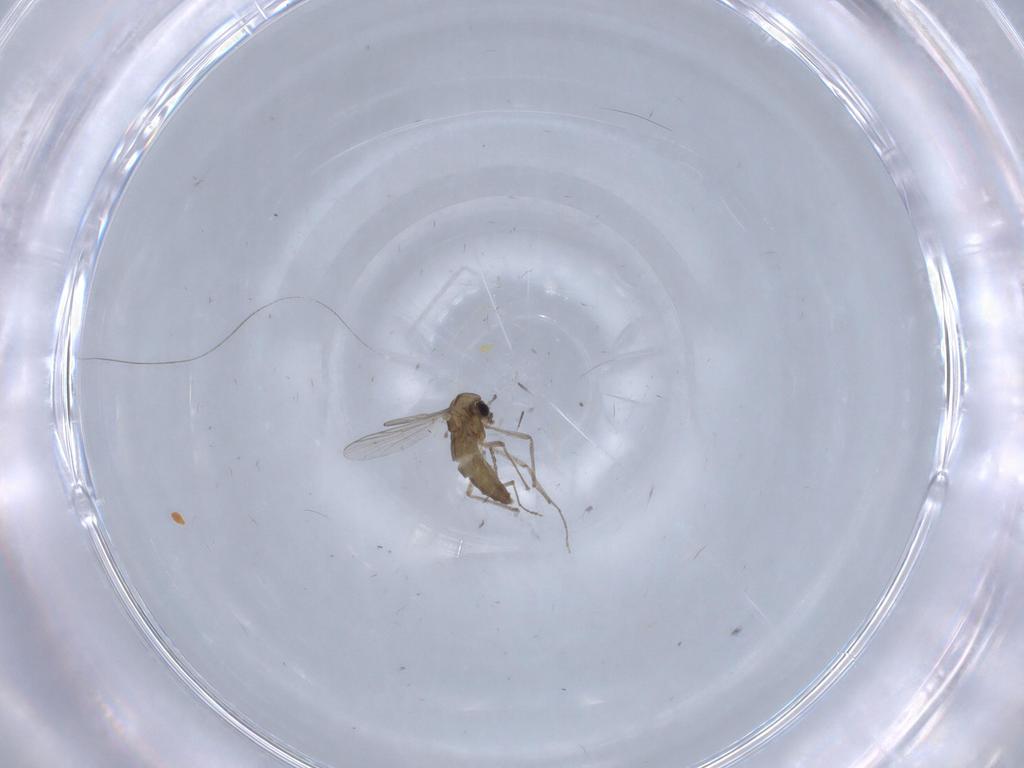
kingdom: Animalia
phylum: Arthropoda
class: Insecta
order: Diptera
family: Chironomidae
